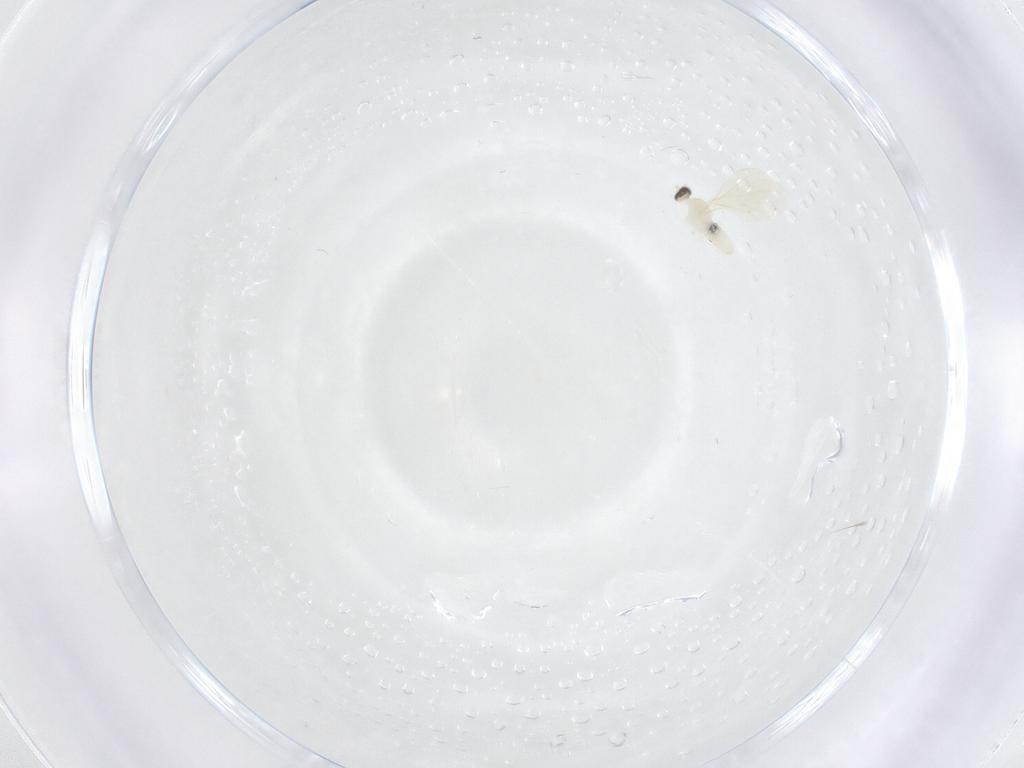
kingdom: Animalia
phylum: Arthropoda
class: Insecta
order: Diptera
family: Cecidomyiidae
